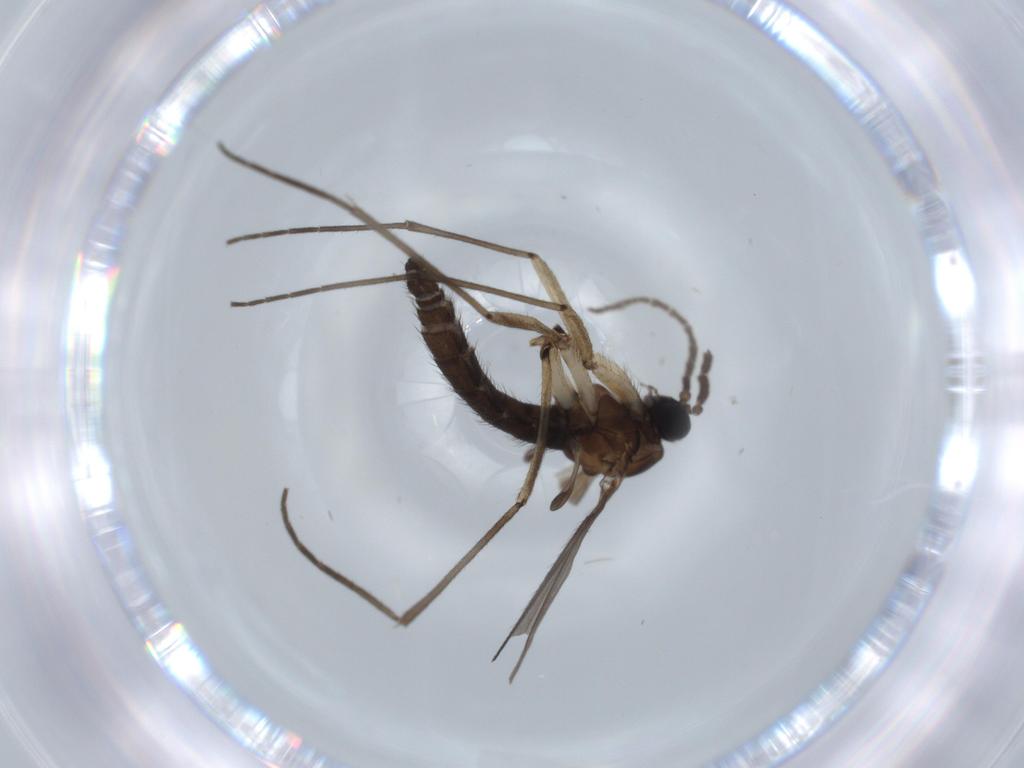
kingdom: Animalia
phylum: Arthropoda
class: Insecta
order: Diptera
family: Sciaridae
